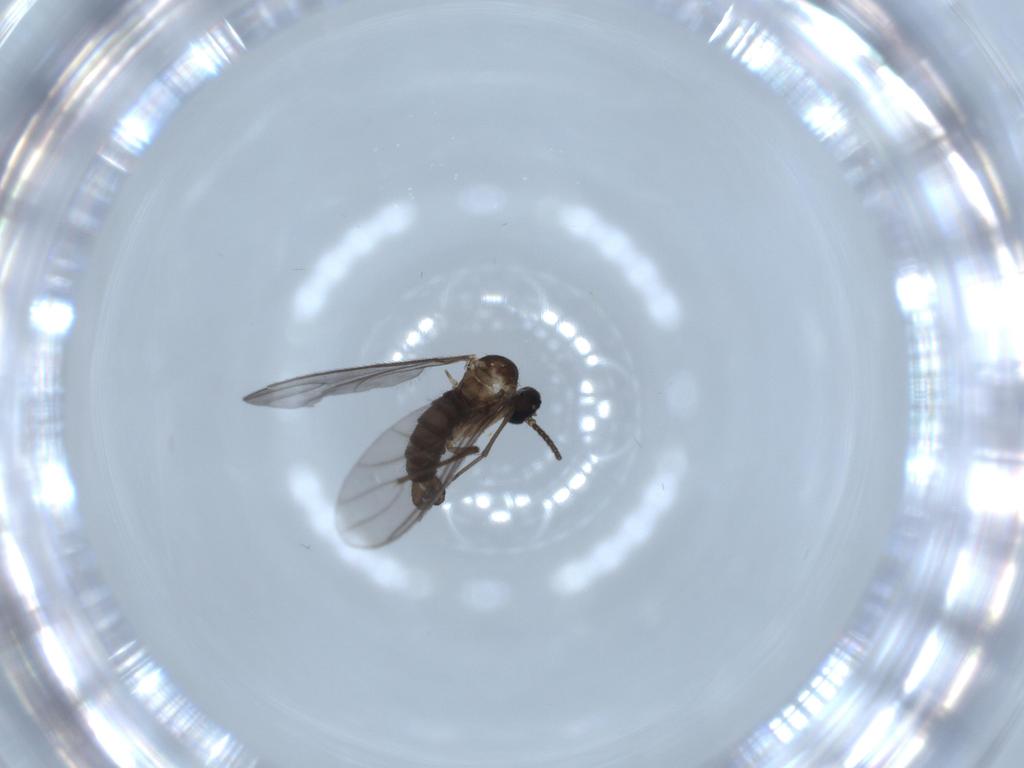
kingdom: Animalia
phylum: Arthropoda
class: Insecta
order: Diptera
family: Sciaridae
